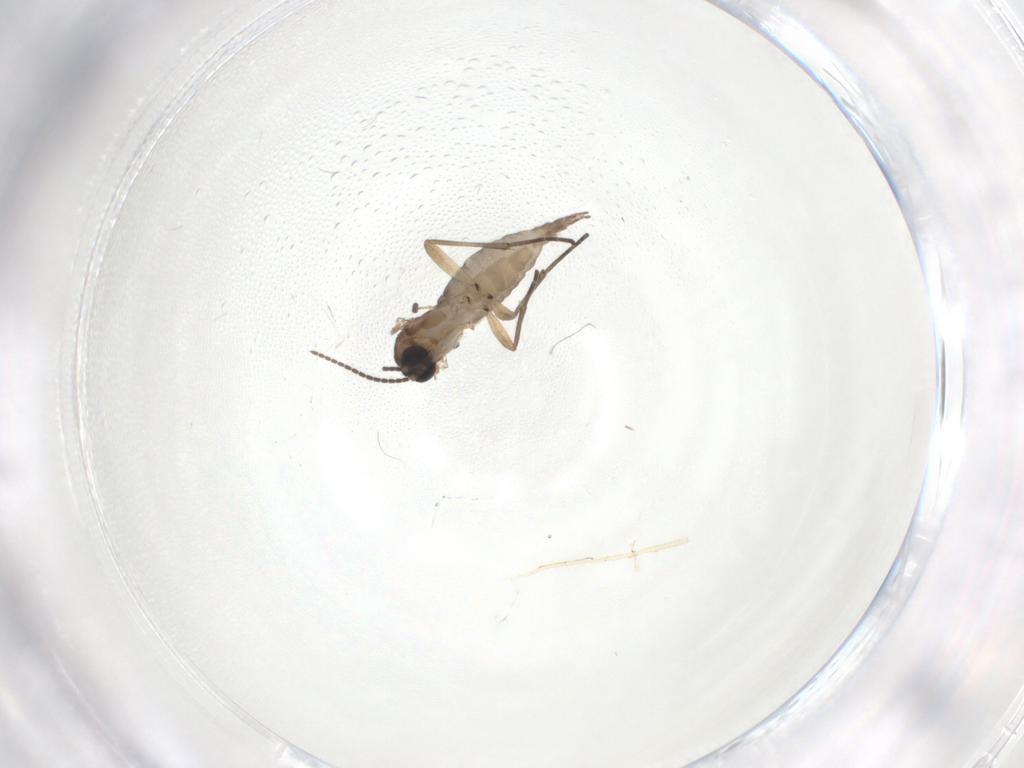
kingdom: Animalia
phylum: Arthropoda
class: Insecta
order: Diptera
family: Sciaridae
